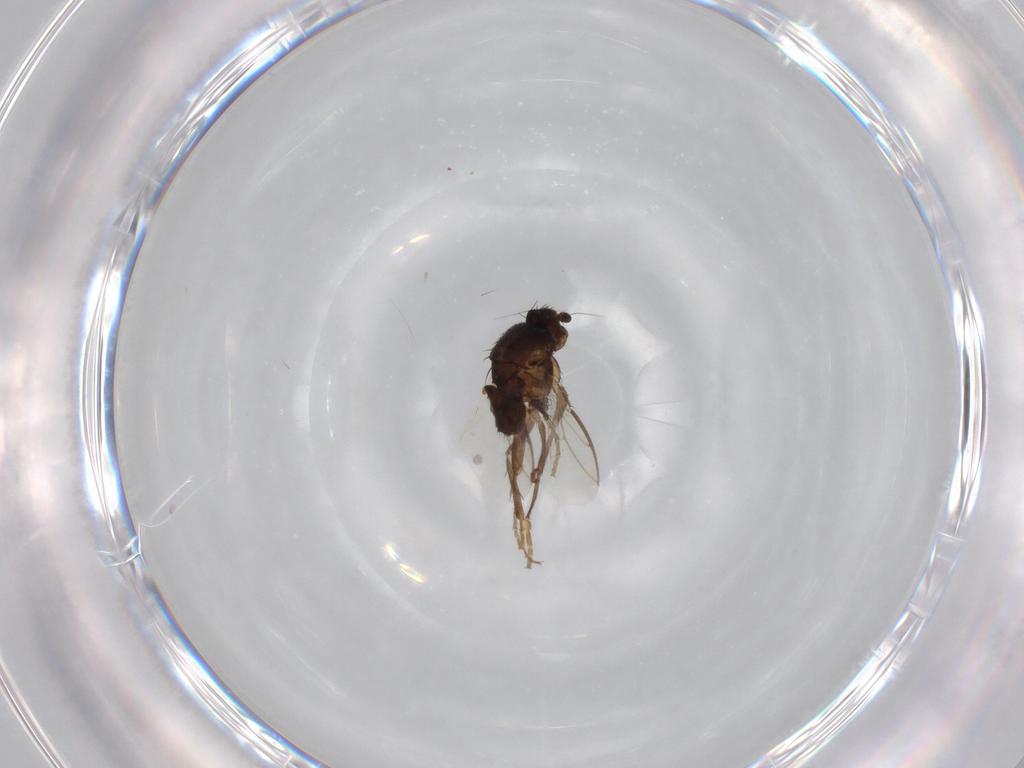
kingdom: Animalia
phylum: Arthropoda
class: Insecta
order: Diptera
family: Sphaeroceridae
